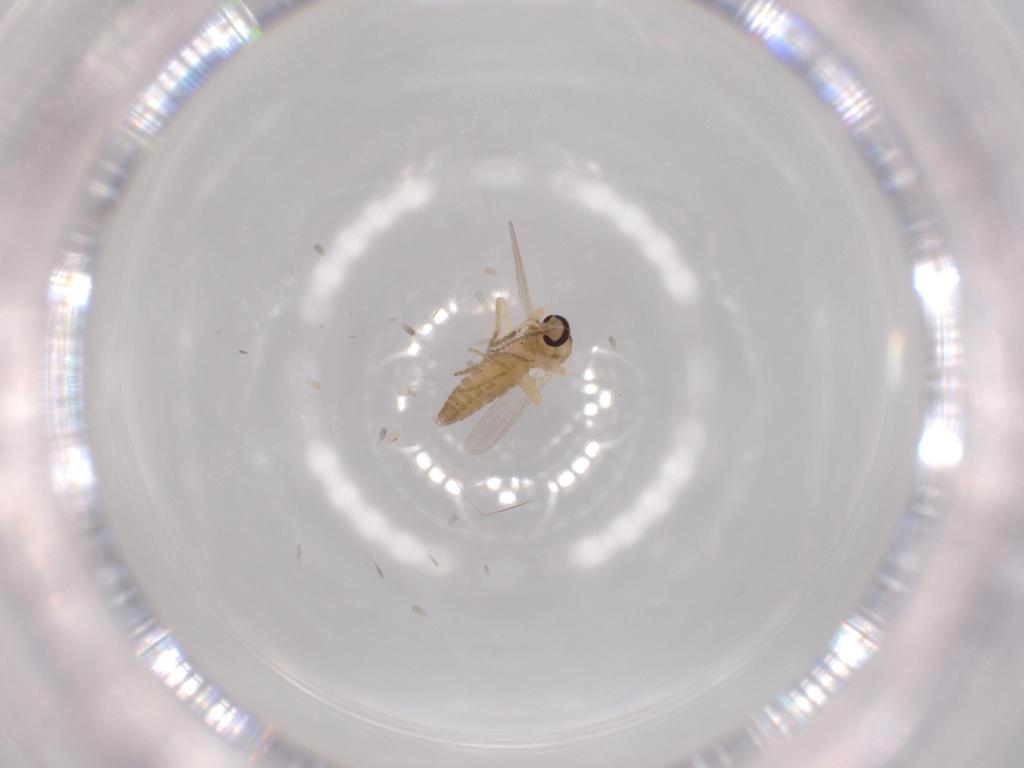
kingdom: Animalia
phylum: Arthropoda
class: Insecta
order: Diptera
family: Ceratopogonidae
